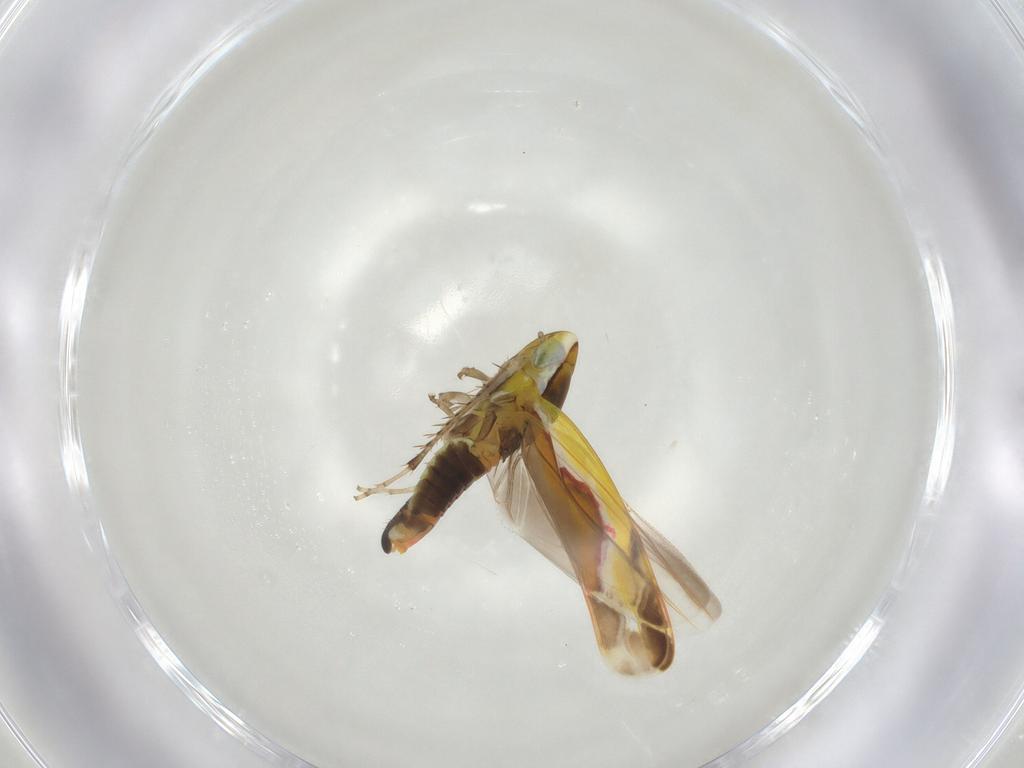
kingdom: Animalia
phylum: Arthropoda
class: Insecta
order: Hemiptera
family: Cicadellidae
